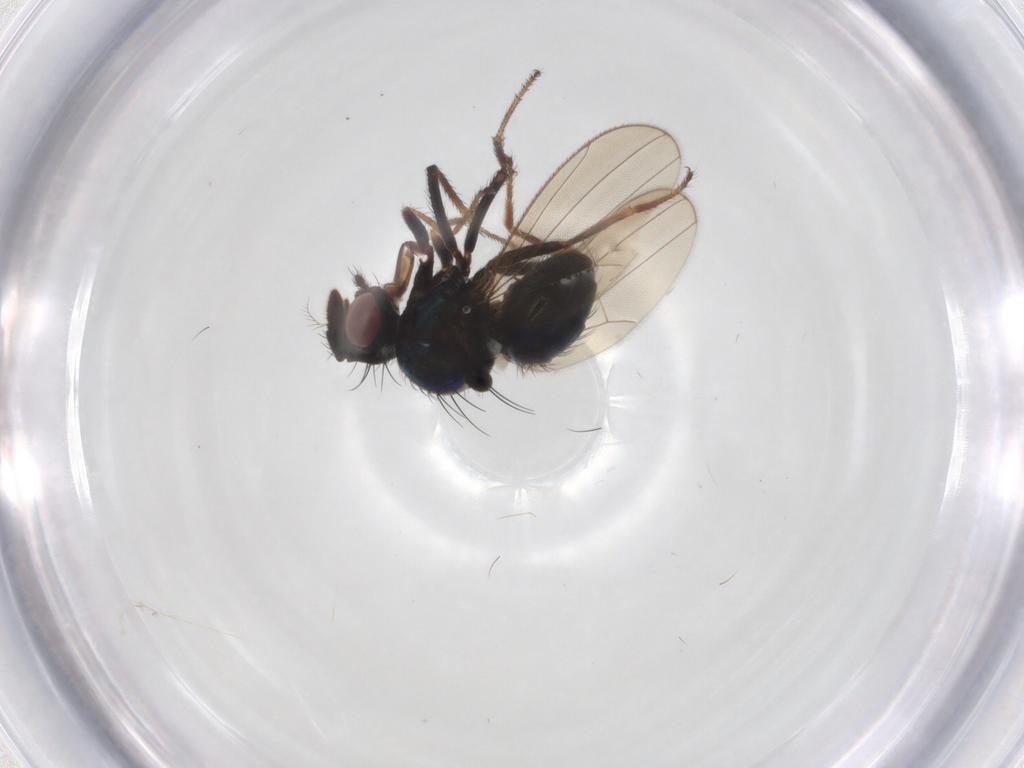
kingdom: Animalia
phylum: Arthropoda
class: Insecta
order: Diptera
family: Ephydridae
